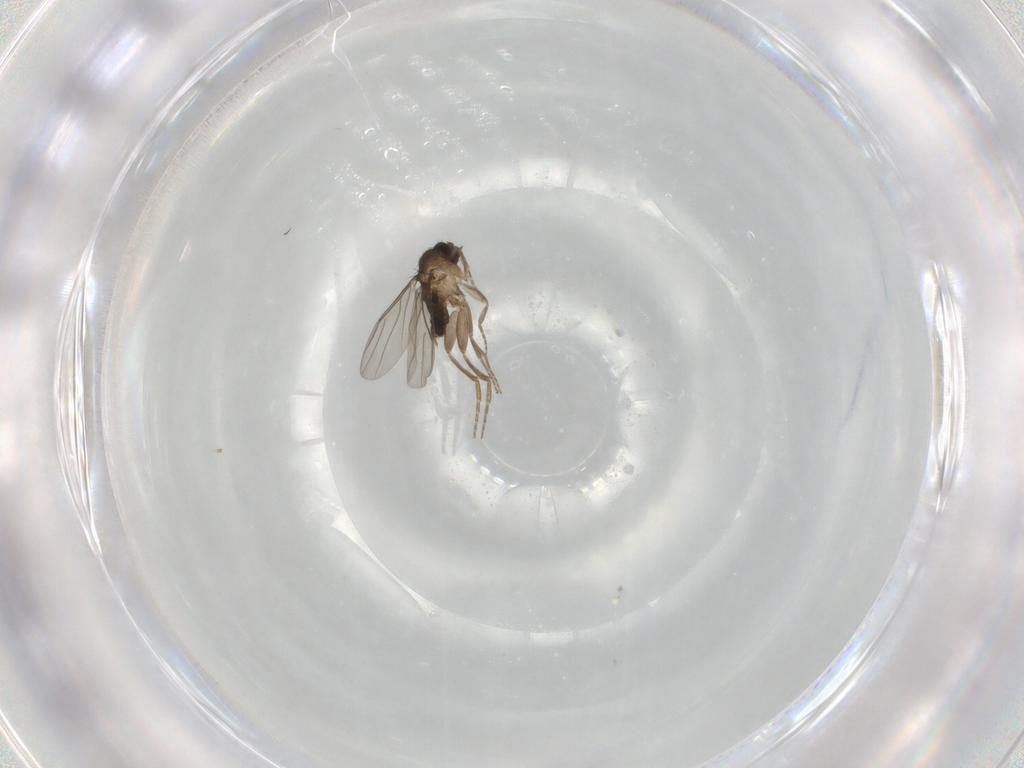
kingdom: Animalia
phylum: Arthropoda
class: Insecta
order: Diptera
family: Phoridae
